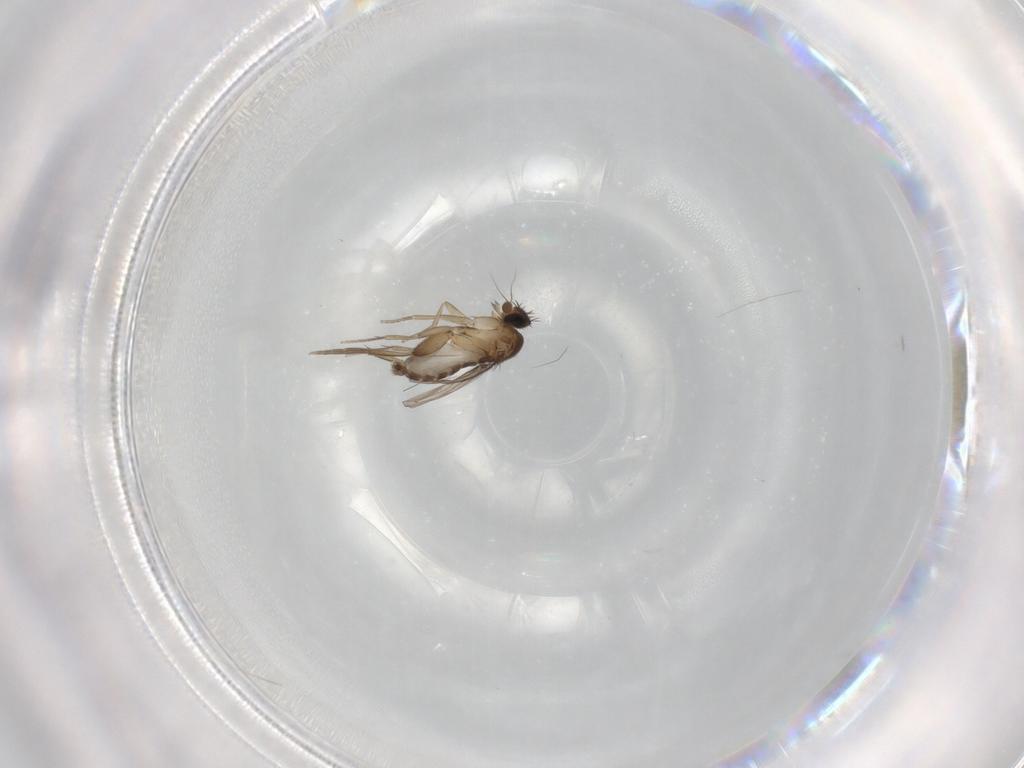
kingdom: Animalia
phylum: Arthropoda
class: Insecta
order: Diptera
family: Phoridae
